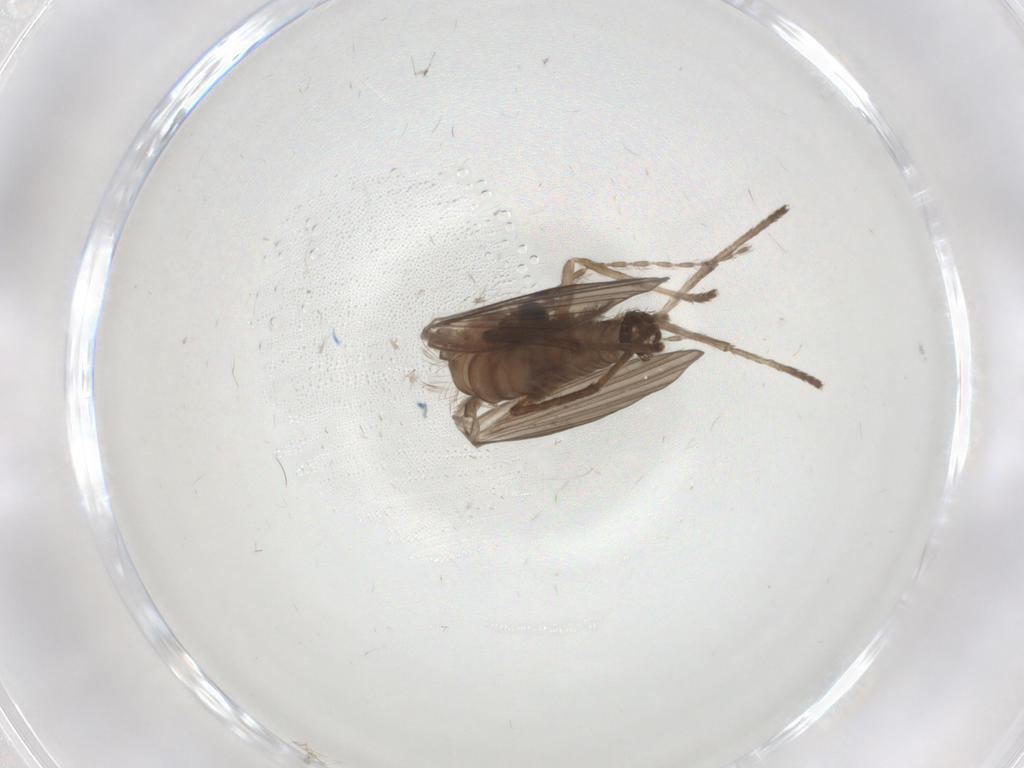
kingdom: Animalia
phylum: Arthropoda
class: Insecta
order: Diptera
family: Psychodidae
